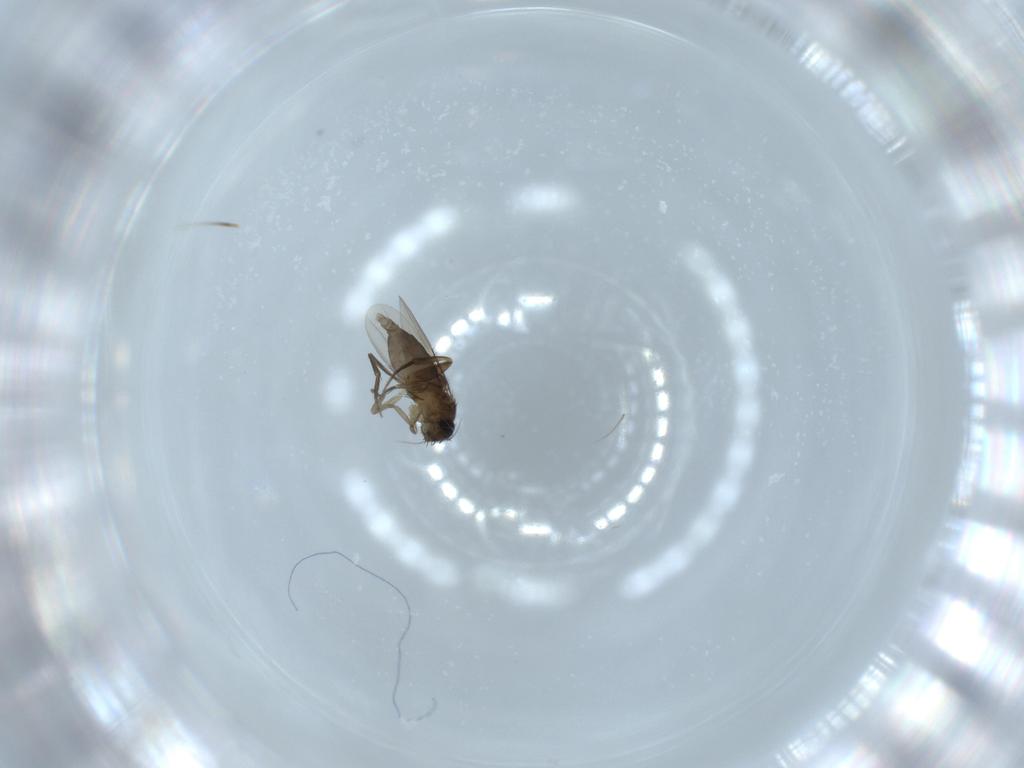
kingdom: Animalia
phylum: Arthropoda
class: Insecta
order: Diptera
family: Phoridae
